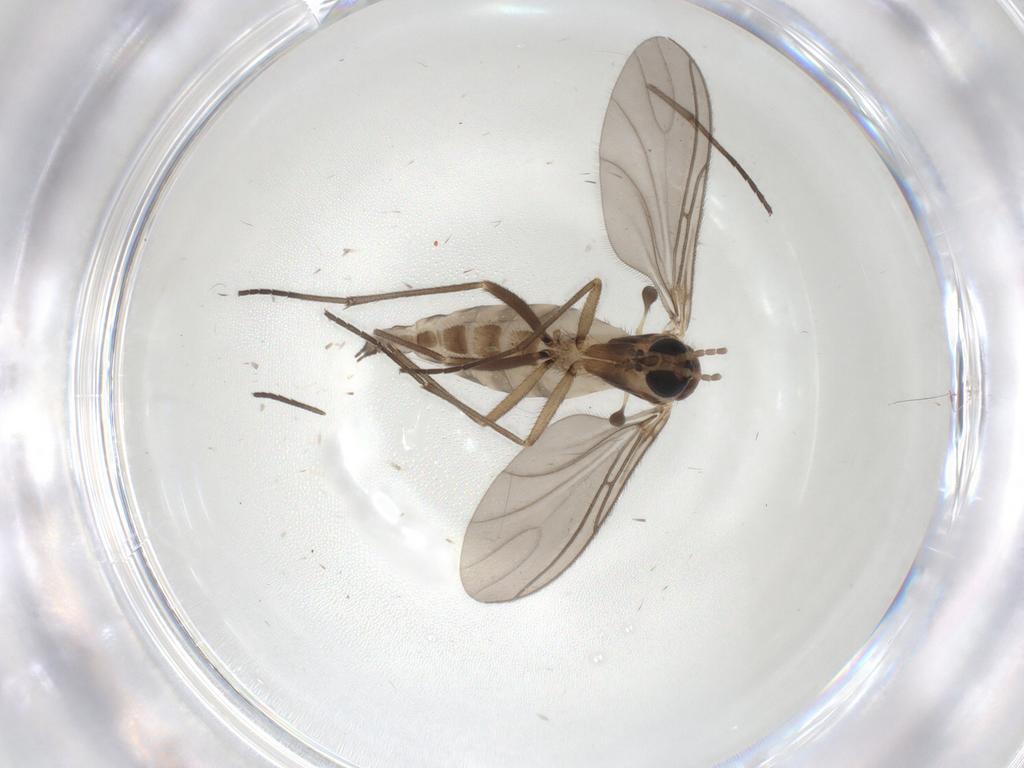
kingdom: Animalia
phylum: Arthropoda
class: Insecta
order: Diptera
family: Sciaridae
